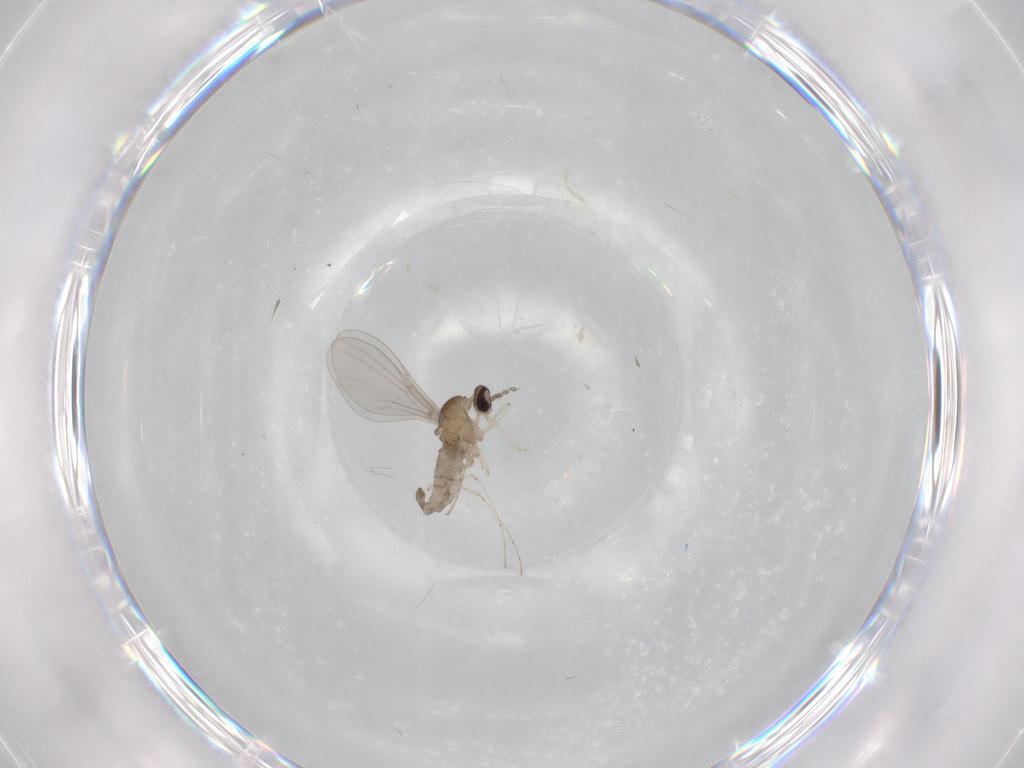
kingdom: Animalia
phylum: Arthropoda
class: Insecta
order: Diptera
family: Cecidomyiidae
